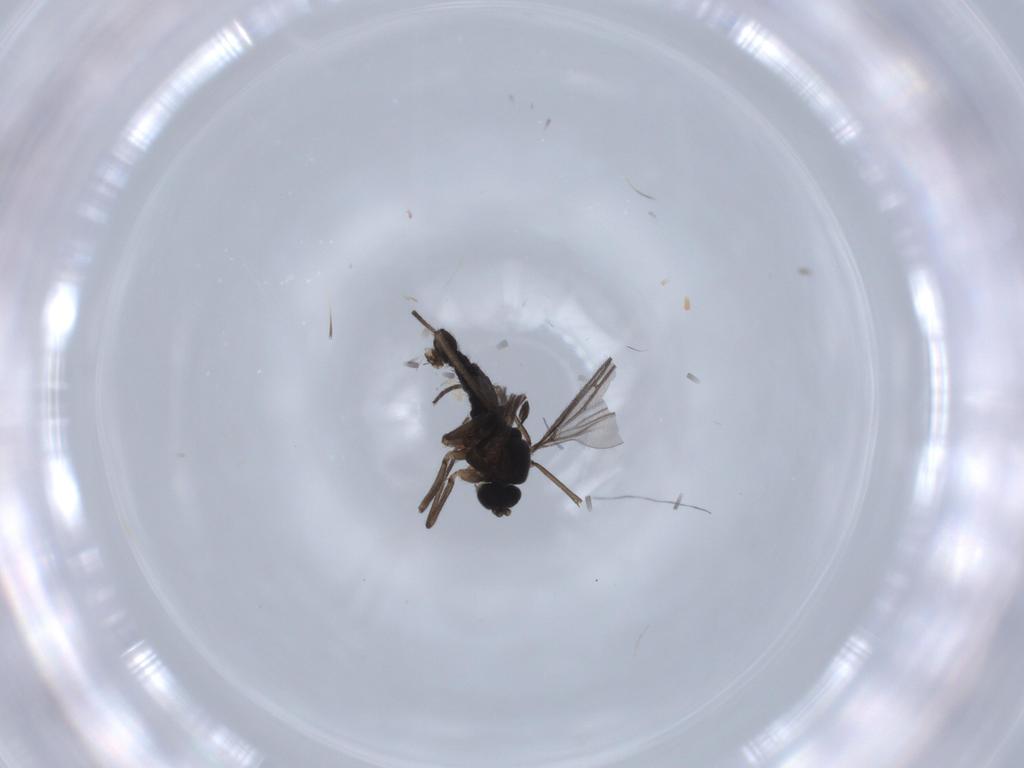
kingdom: Animalia
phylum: Arthropoda
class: Insecta
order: Diptera
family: Sciaridae
